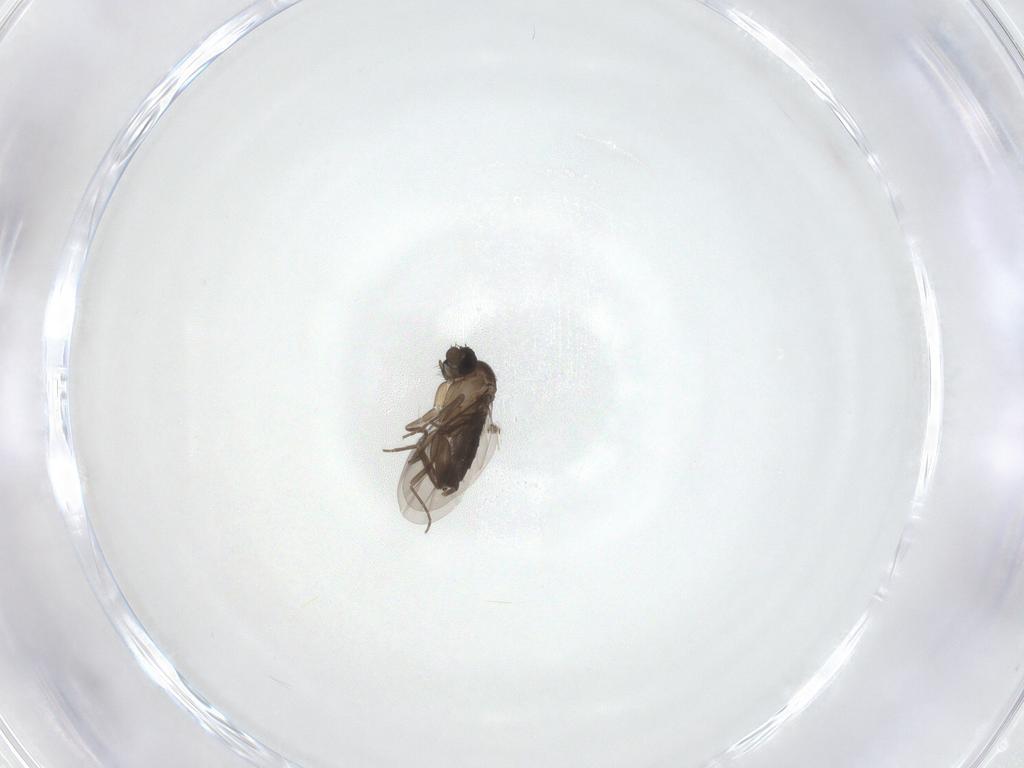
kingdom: Animalia
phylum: Arthropoda
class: Insecta
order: Diptera
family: Phoridae
